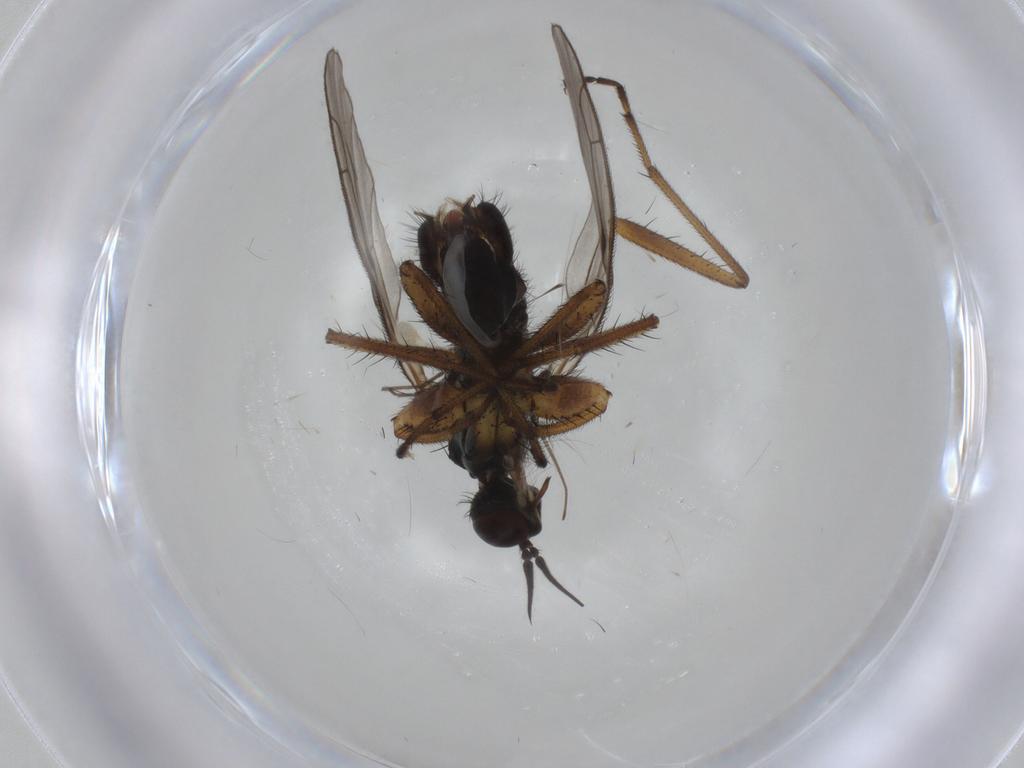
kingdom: Animalia
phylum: Arthropoda
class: Insecta
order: Diptera
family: Empididae
